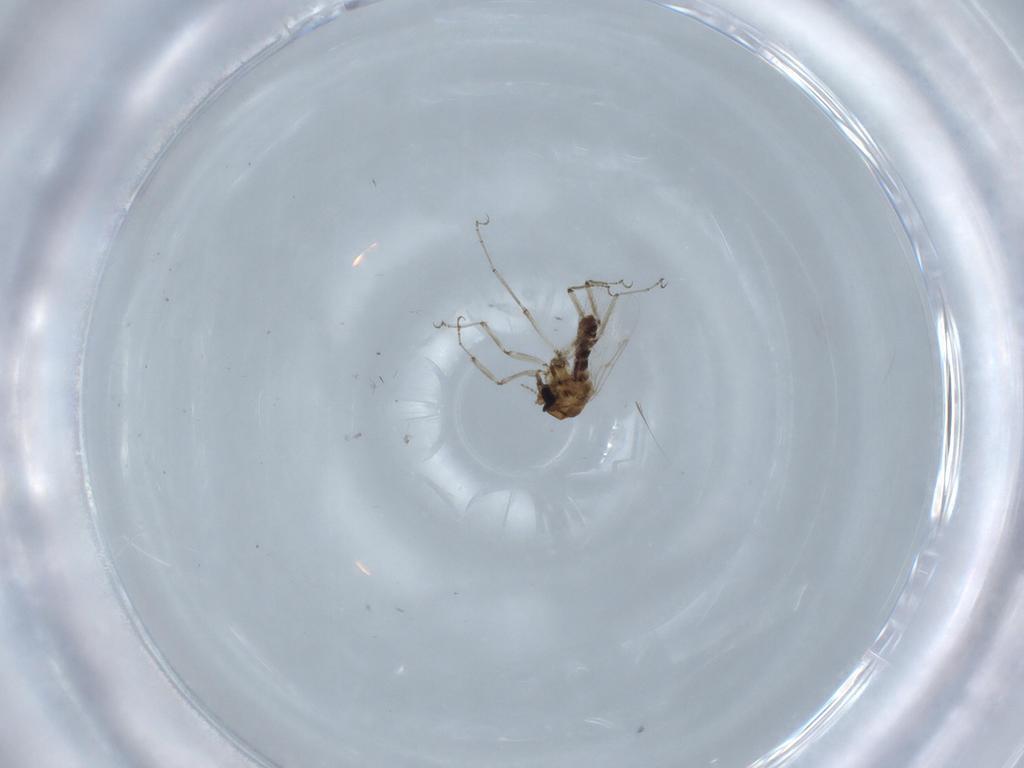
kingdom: Animalia
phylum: Arthropoda
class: Insecta
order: Diptera
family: Ceratopogonidae
